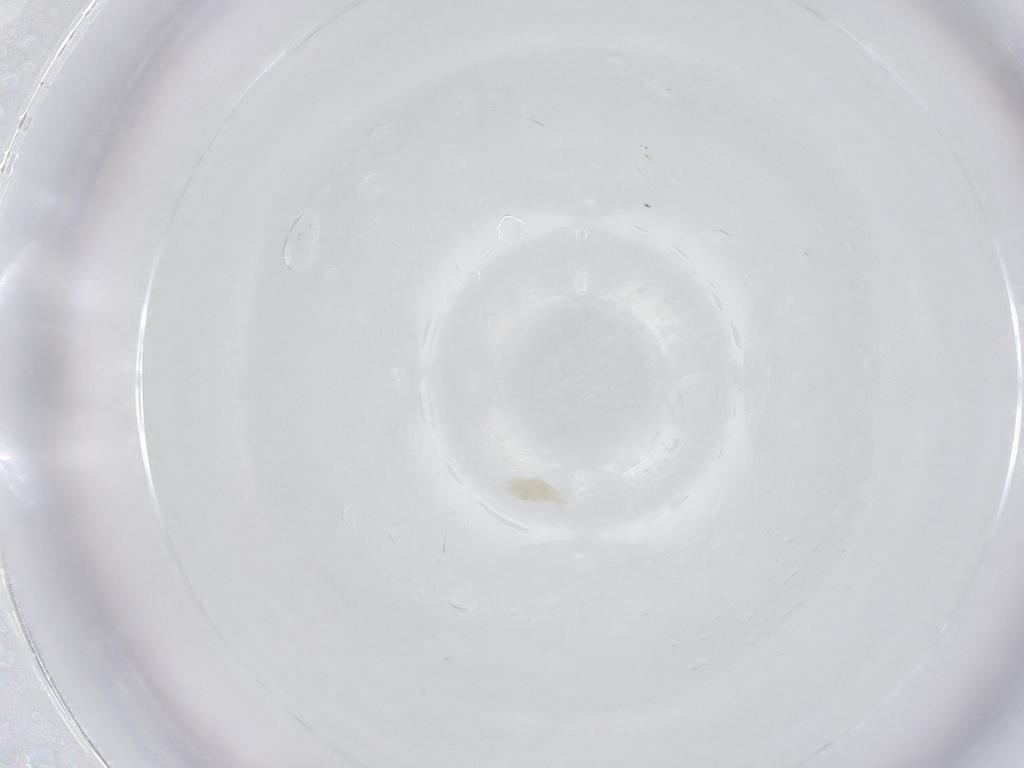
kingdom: Animalia
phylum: Arthropoda
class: Arachnida
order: Trombidiformes
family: Eupodidae
